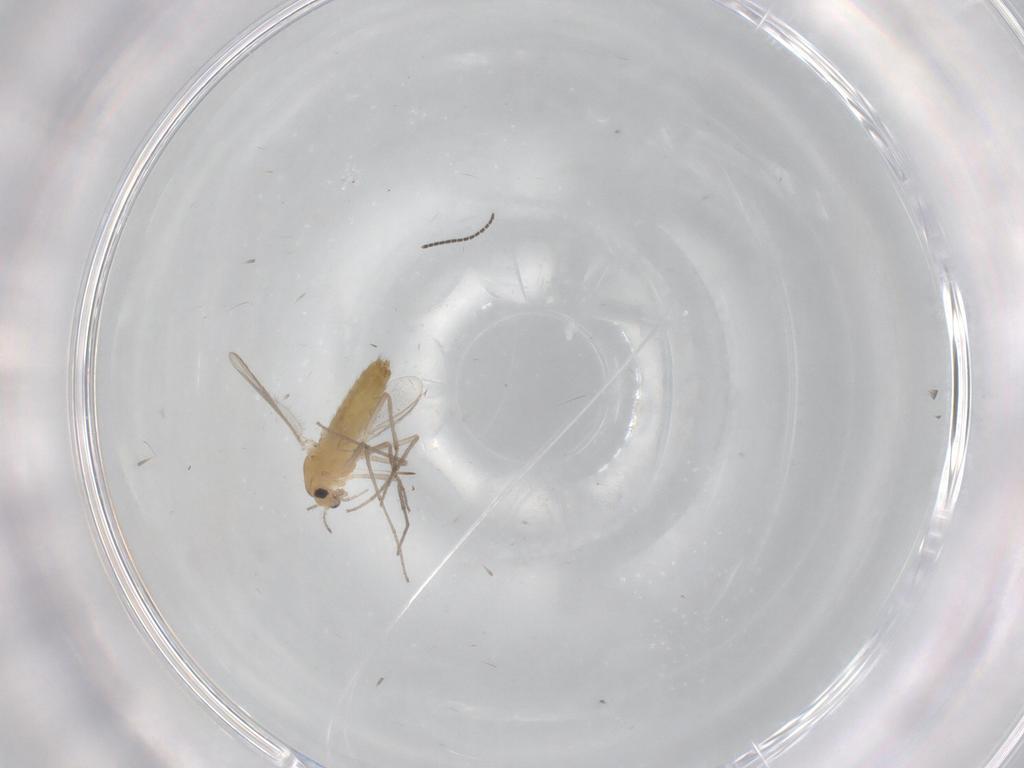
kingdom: Animalia
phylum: Arthropoda
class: Insecta
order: Diptera
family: Chironomidae
